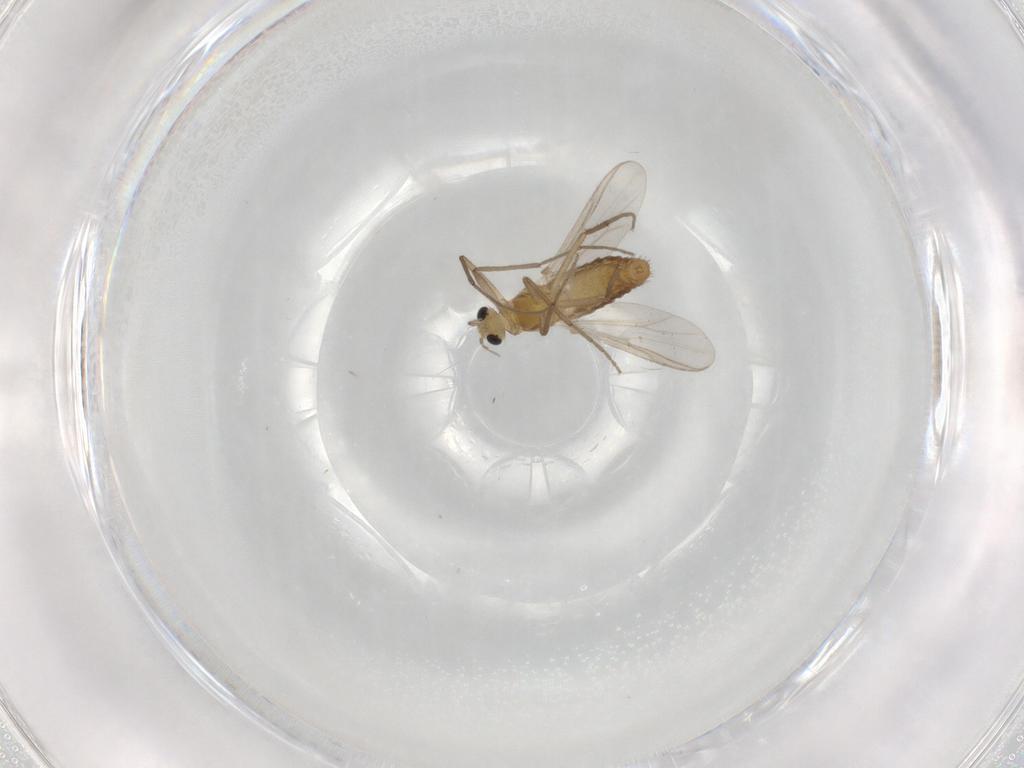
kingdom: Animalia
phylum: Arthropoda
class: Insecta
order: Diptera
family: Chironomidae
